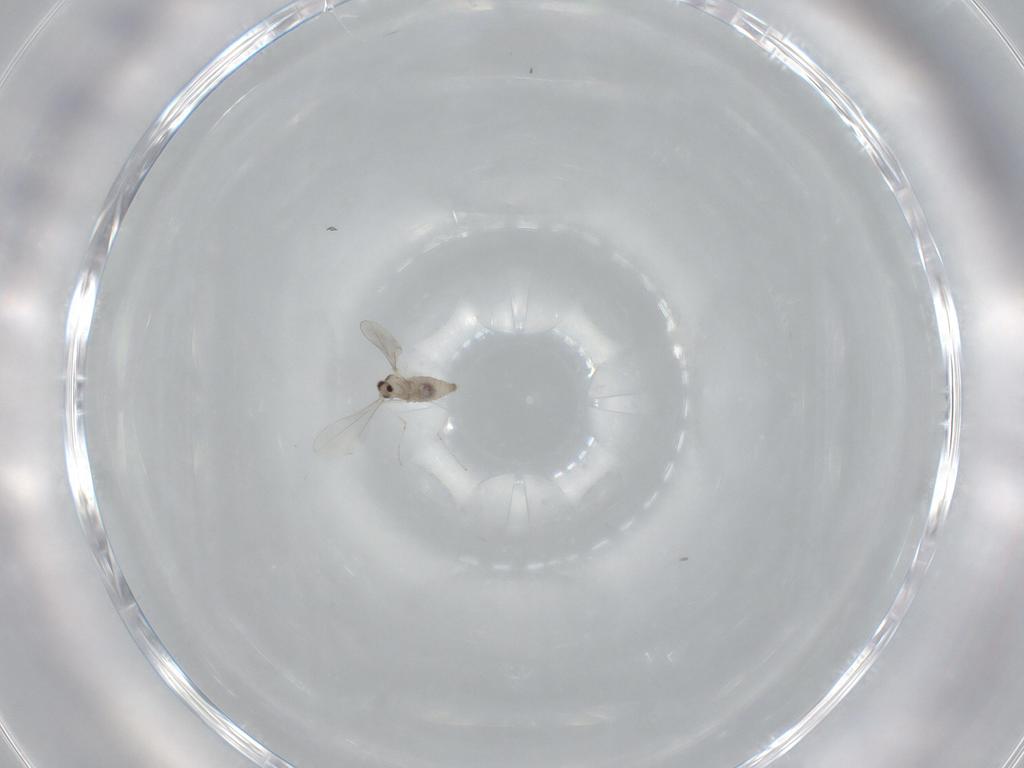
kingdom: Animalia
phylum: Arthropoda
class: Insecta
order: Diptera
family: Cecidomyiidae
